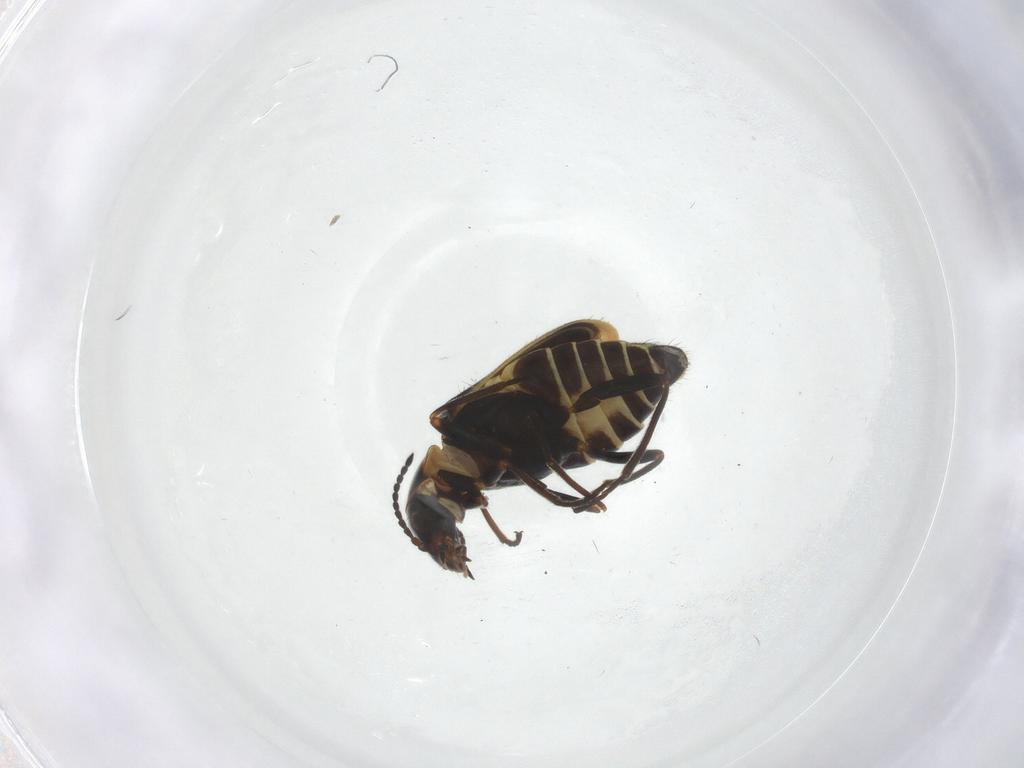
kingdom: Animalia
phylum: Arthropoda
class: Insecta
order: Coleoptera
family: Melyridae
